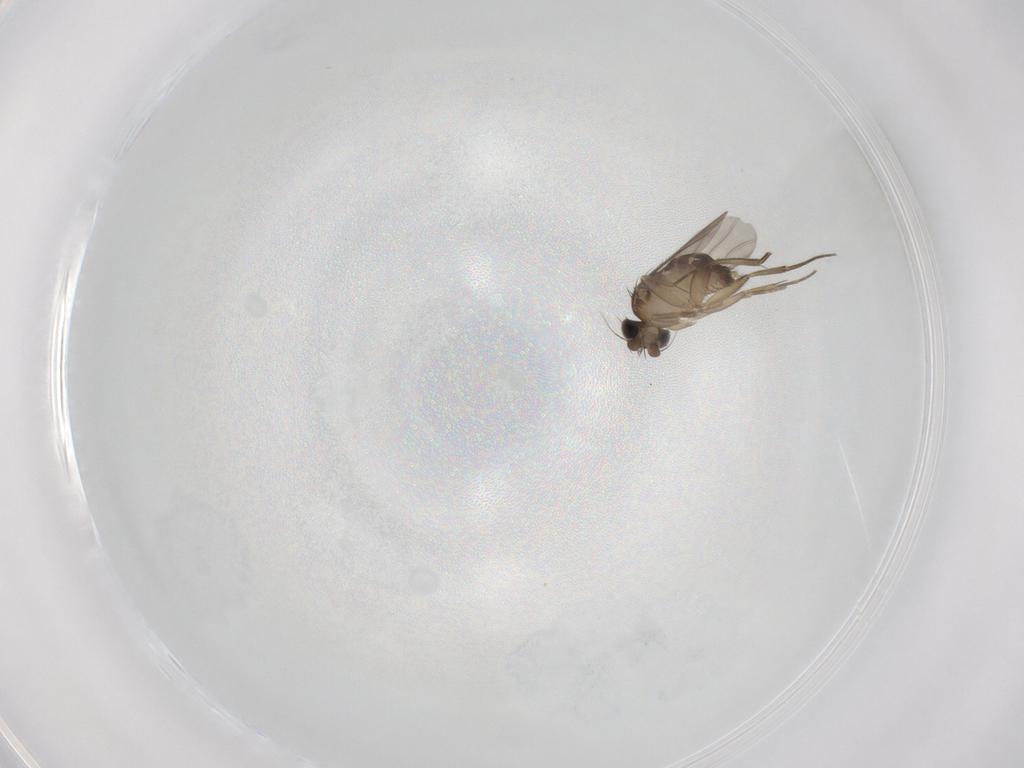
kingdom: Animalia
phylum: Arthropoda
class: Insecta
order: Diptera
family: Phoridae
